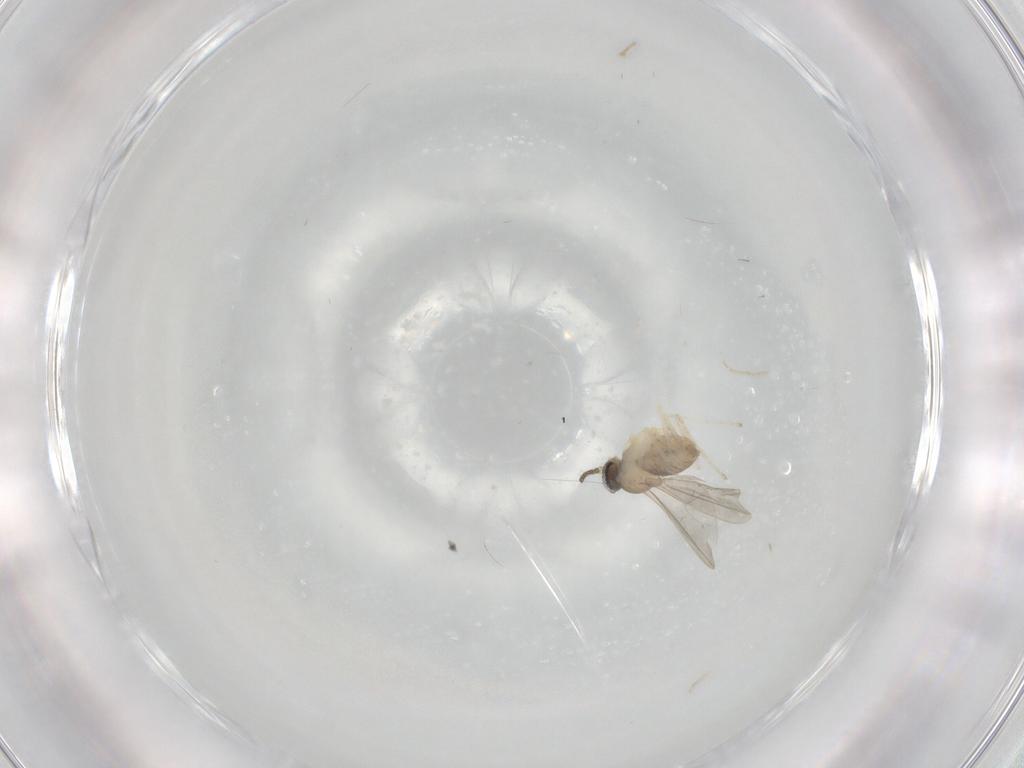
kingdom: Animalia
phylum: Arthropoda
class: Insecta
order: Diptera
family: Cecidomyiidae
